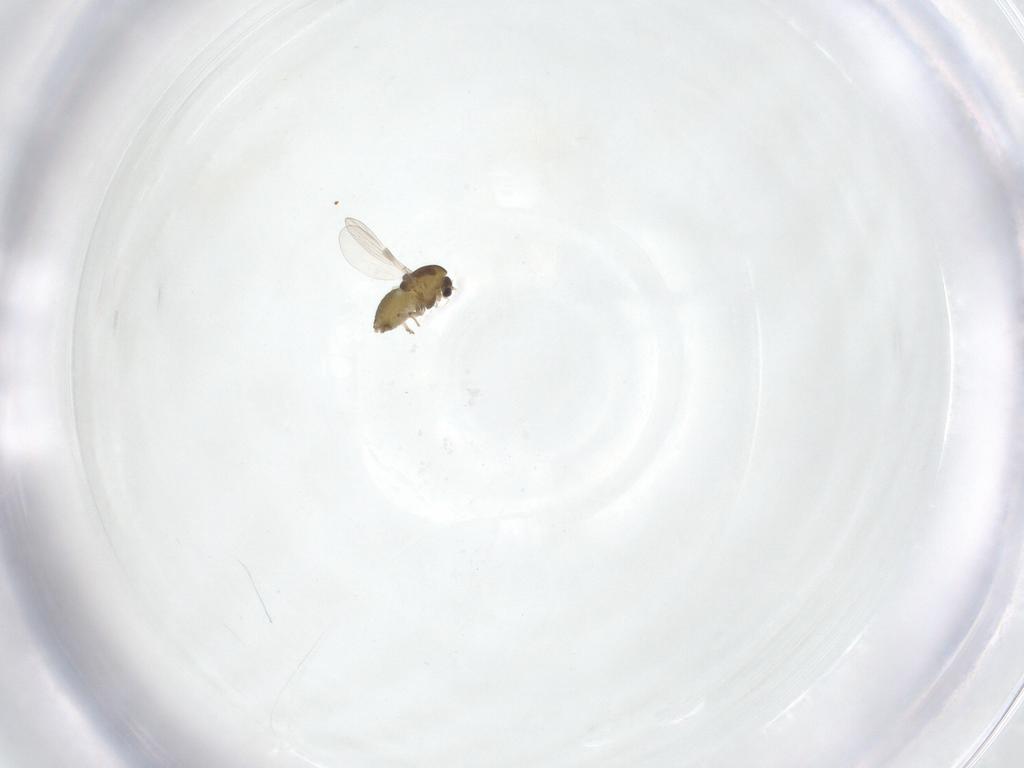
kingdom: Animalia
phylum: Arthropoda
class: Insecta
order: Diptera
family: Chironomidae
